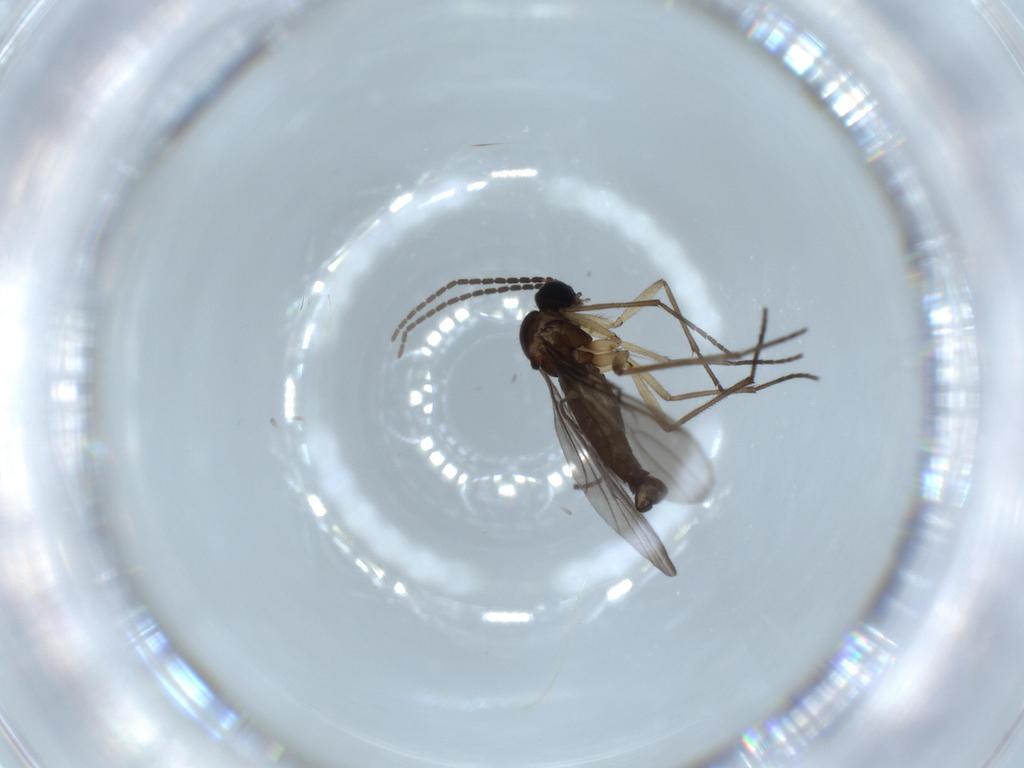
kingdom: Animalia
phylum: Arthropoda
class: Insecta
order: Diptera
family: Sciaridae
